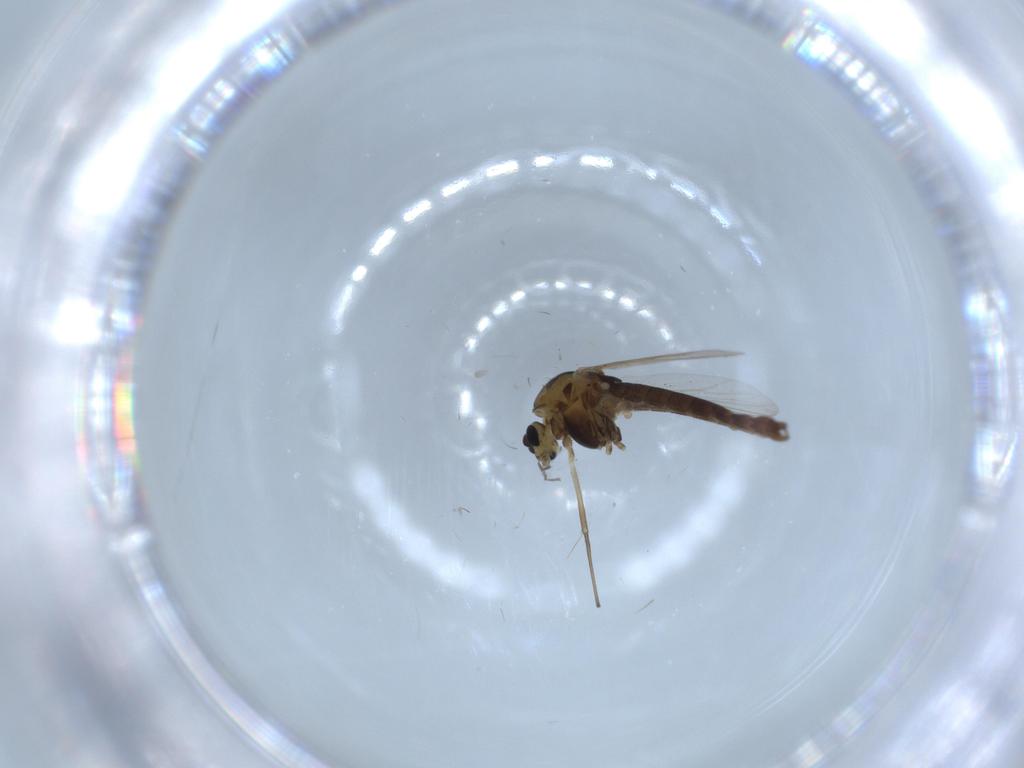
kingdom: Animalia
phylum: Arthropoda
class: Insecta
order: Diptera
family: Chironomidae
